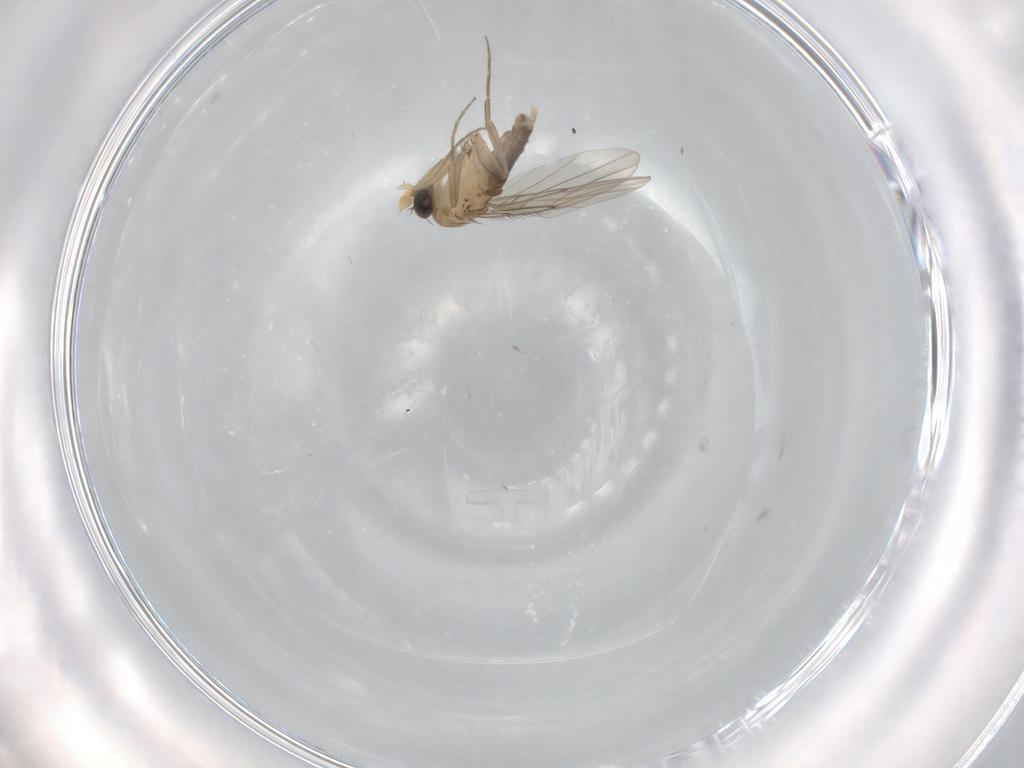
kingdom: Animalia
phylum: Arthropoda
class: Insecta
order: Diptera
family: Phoridae
